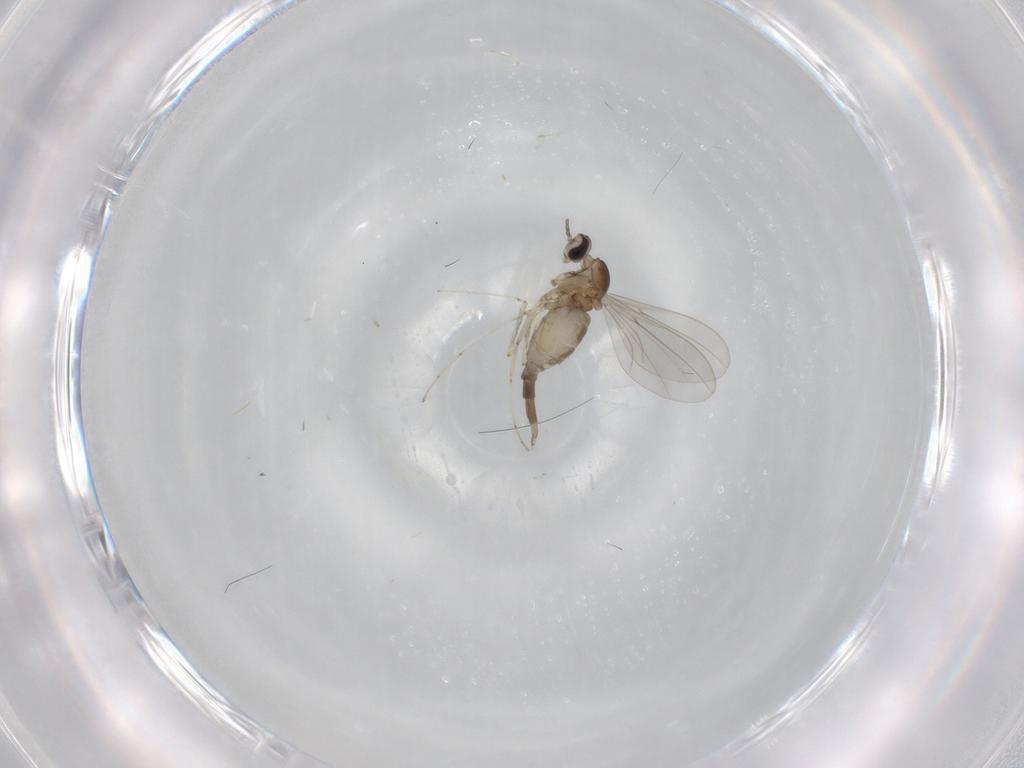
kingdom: Animalia
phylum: Arthropoda
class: Insecta
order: Diptera
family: Cecidomyiidae
